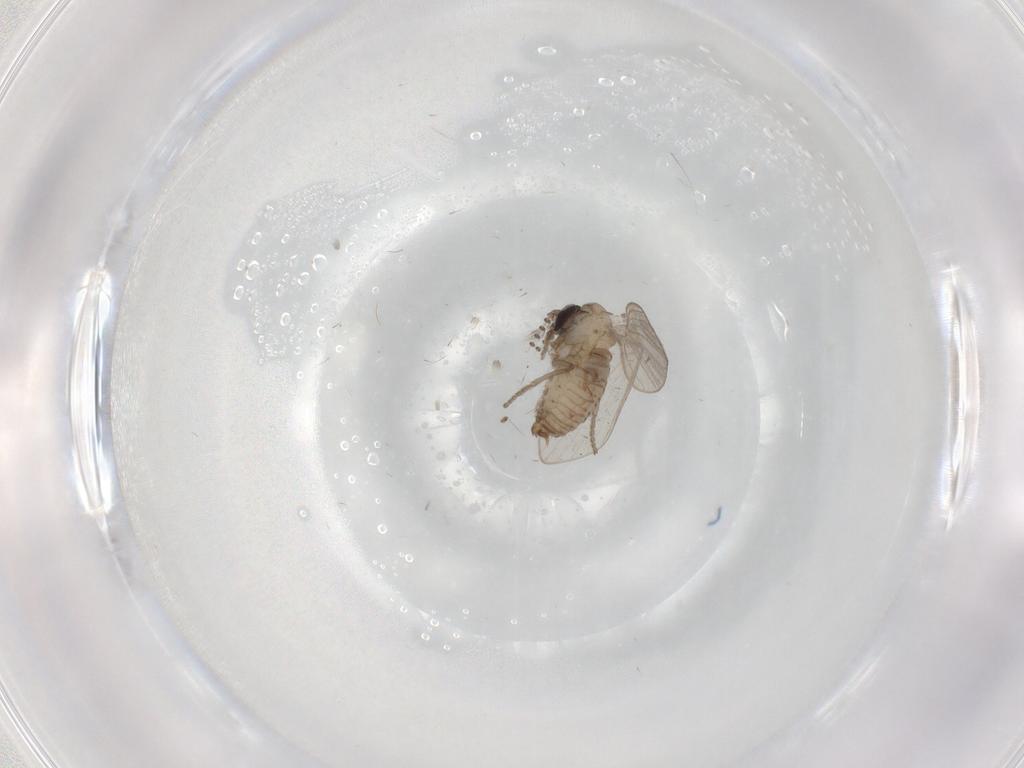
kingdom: Animalia
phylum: Arthropoda
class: Insecta
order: Diptera
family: Psychodidae
